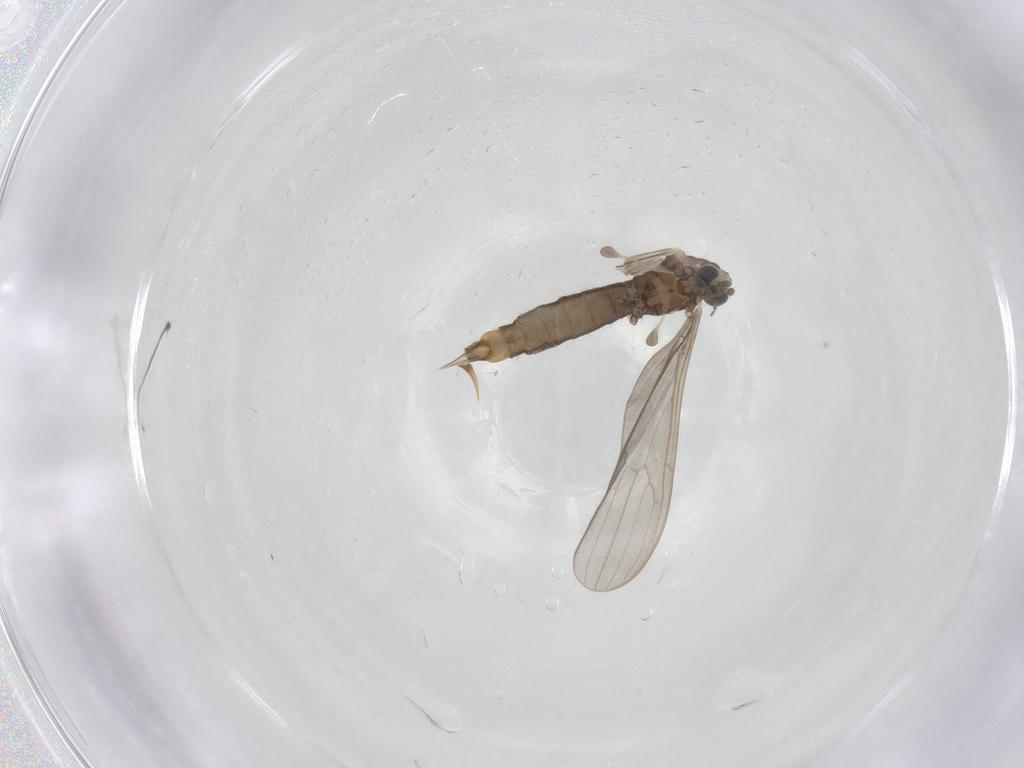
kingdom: Animalia
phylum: Arthropoda
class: Insecta
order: Diptera
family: Limoniidae
